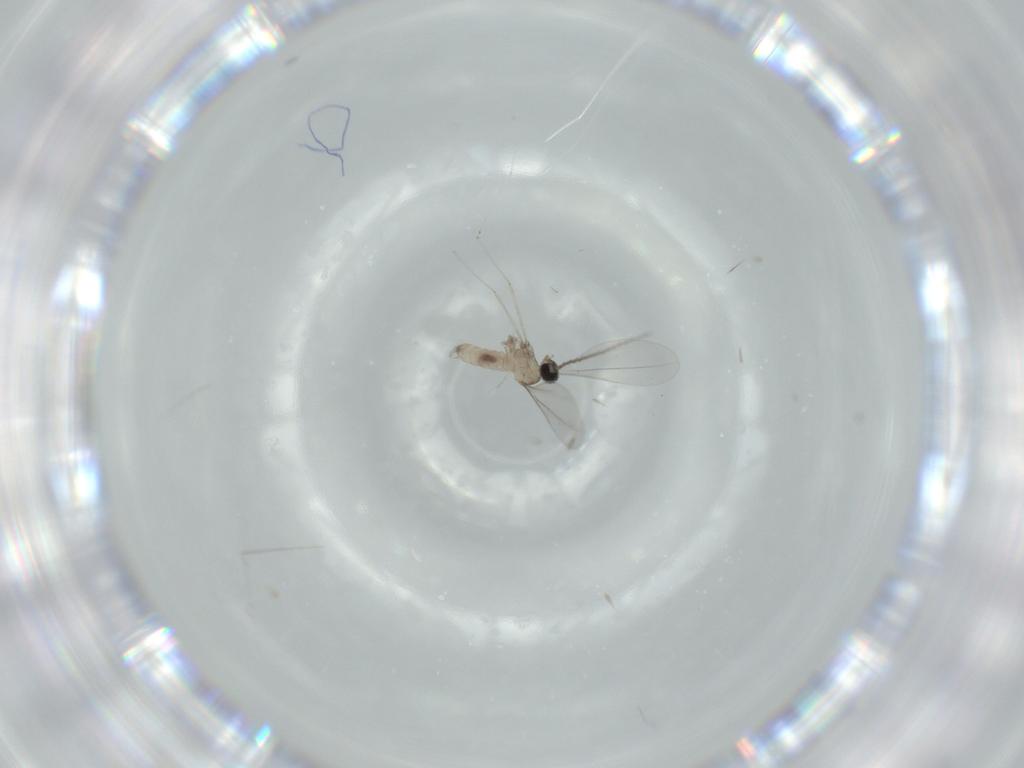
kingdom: Animalia
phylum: Arthropoda
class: Insecta
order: Diptera
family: Cecidomyiidae
